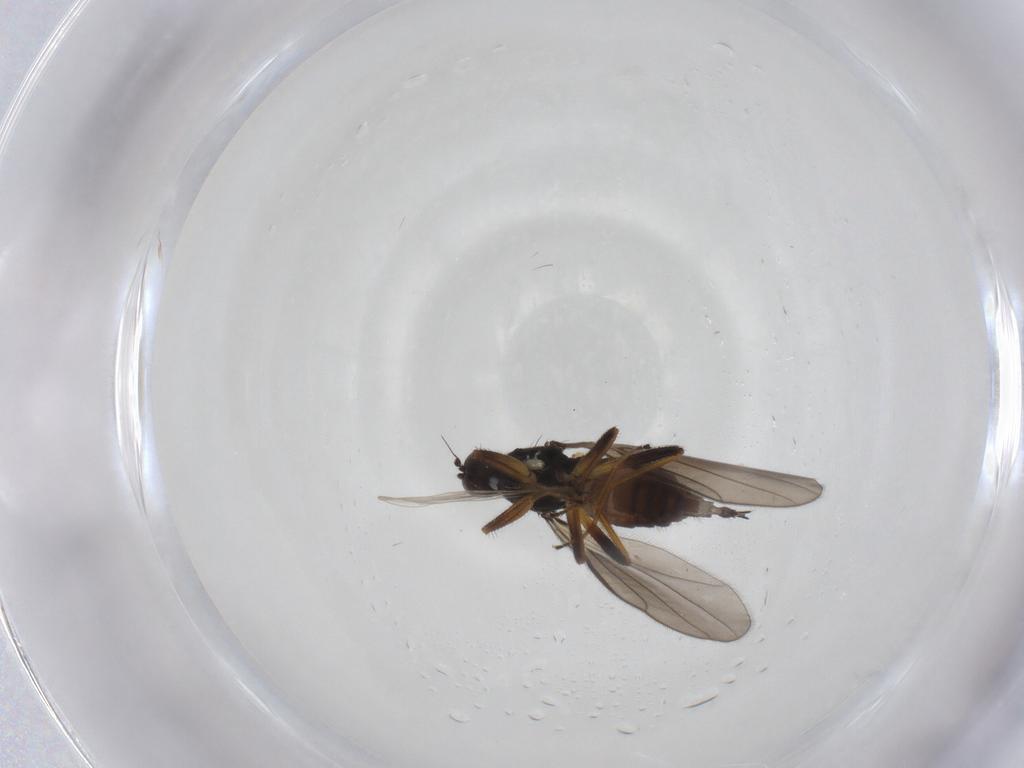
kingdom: Animalia
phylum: Arthropoda
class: Insecta
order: Diptera
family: Hybotidae
